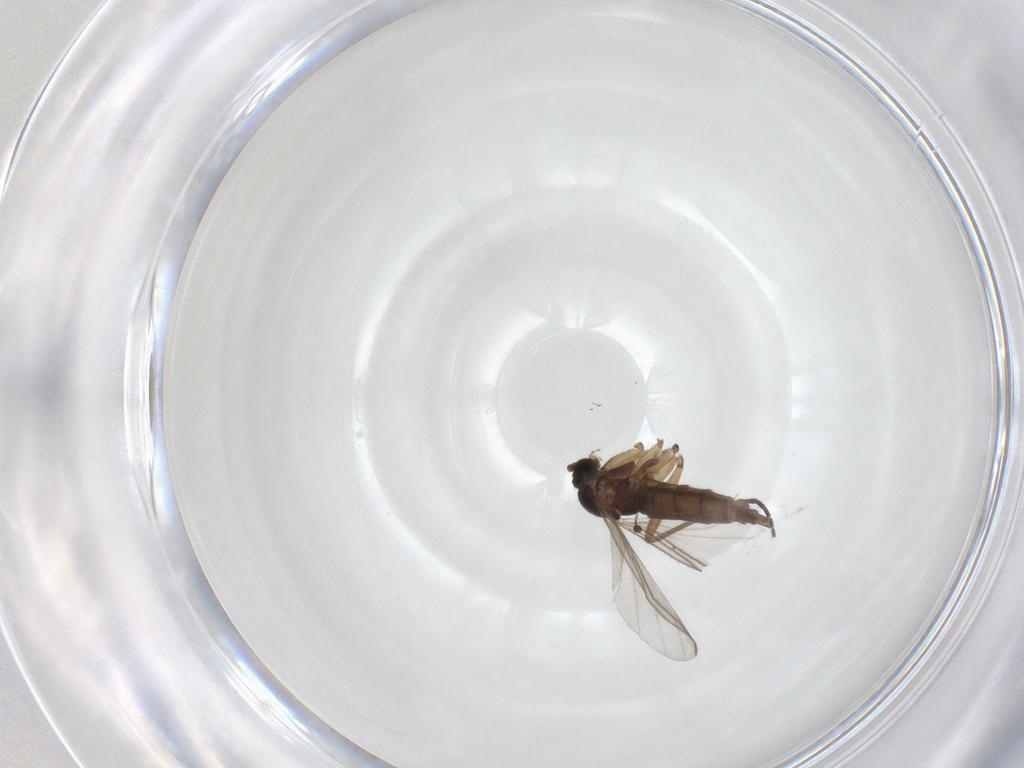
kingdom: Animalia
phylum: Arthropoda
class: Insecta
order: Diptera
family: Sciaridae
